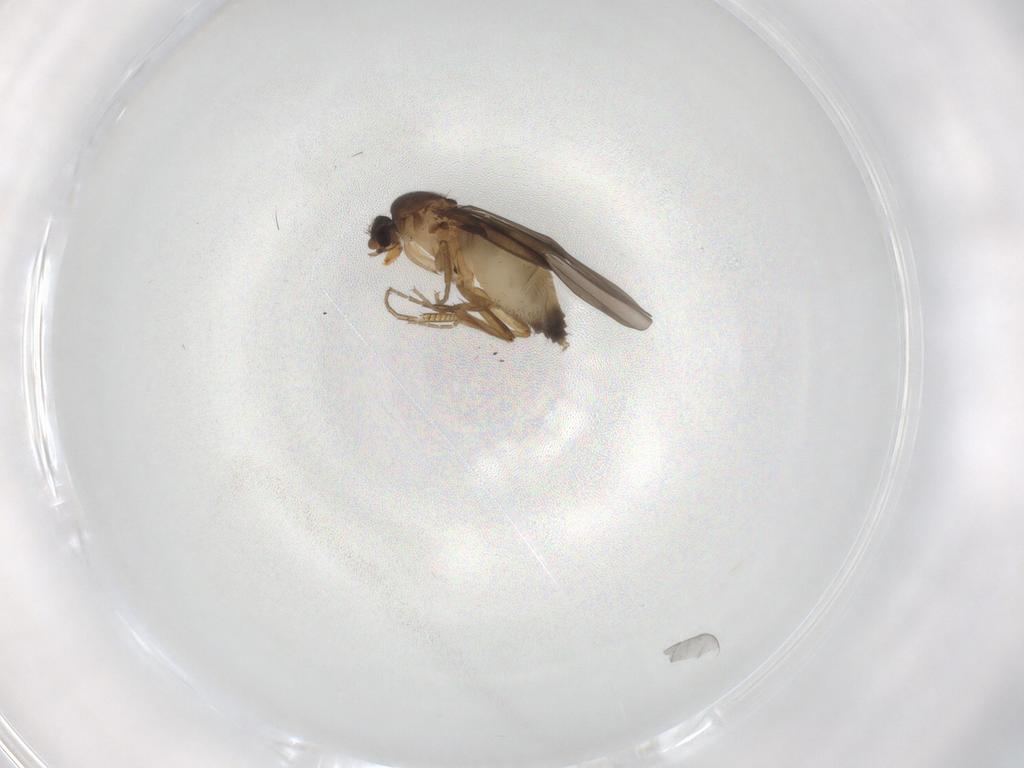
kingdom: Animalia
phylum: Arthropoda
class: Insecta
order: Diptera
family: Phoridae
